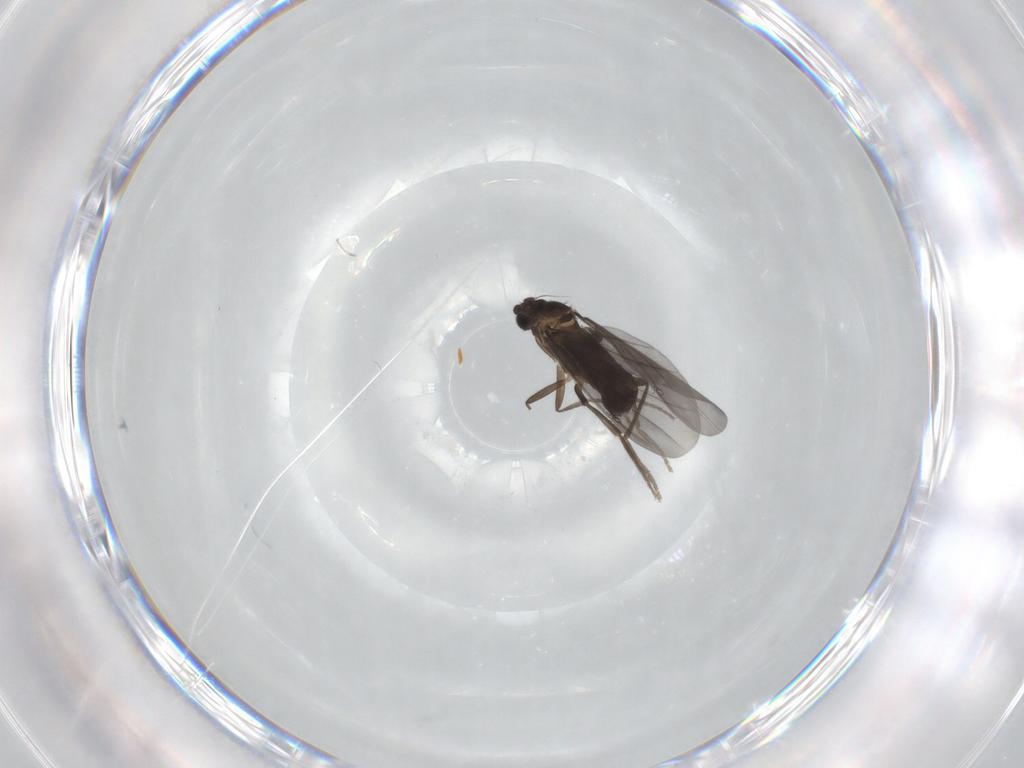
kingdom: Animalia
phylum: Arthropoda
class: Insecta
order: Diptera
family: Phoridae
